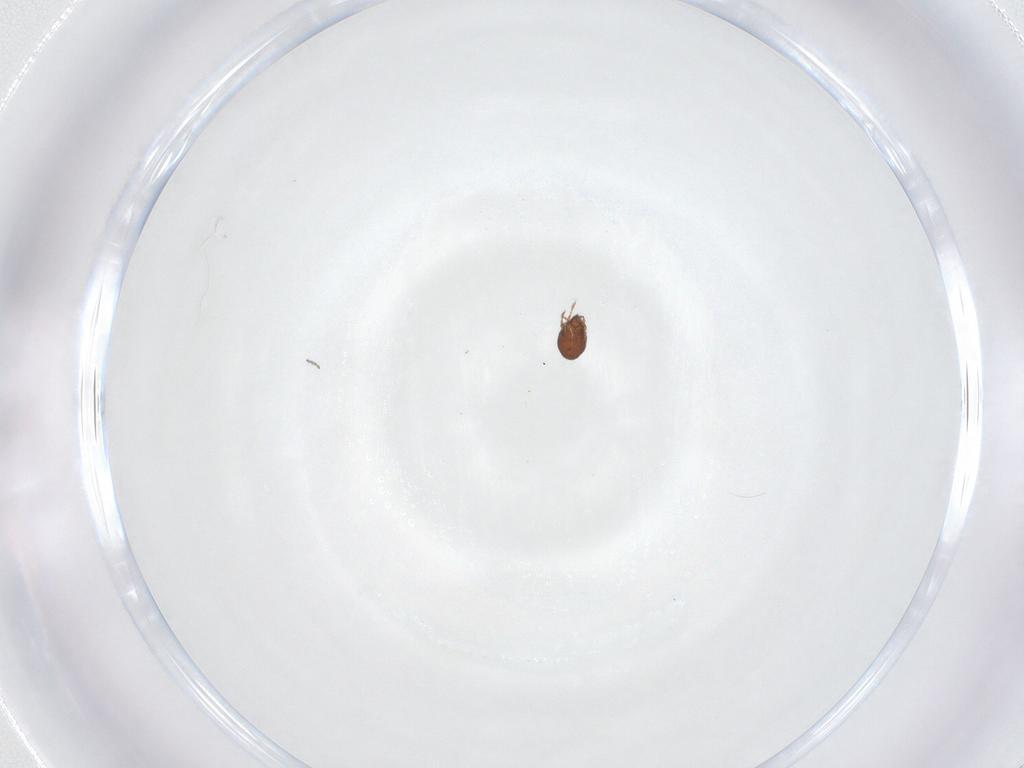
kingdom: Animalia
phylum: Arthropoda
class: Arachnida
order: Sarcoptiformes
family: Dendroeremaeidae
